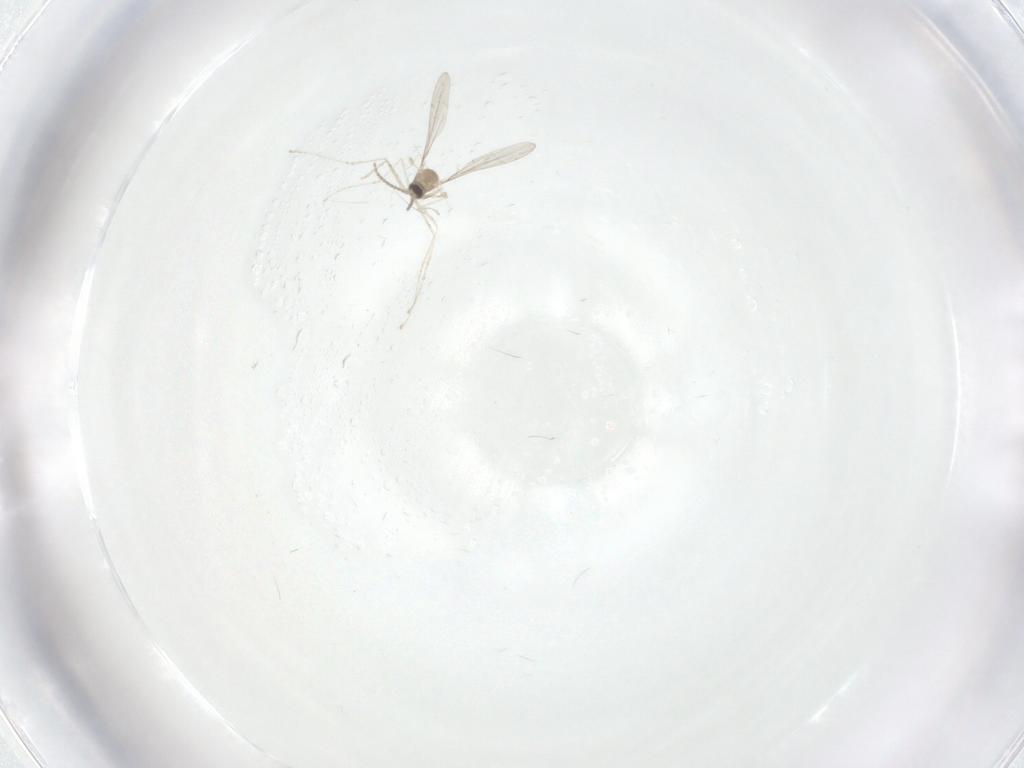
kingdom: Animalia
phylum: Arthropoda
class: Insecta
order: Diptera
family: Cecidomyiidae
